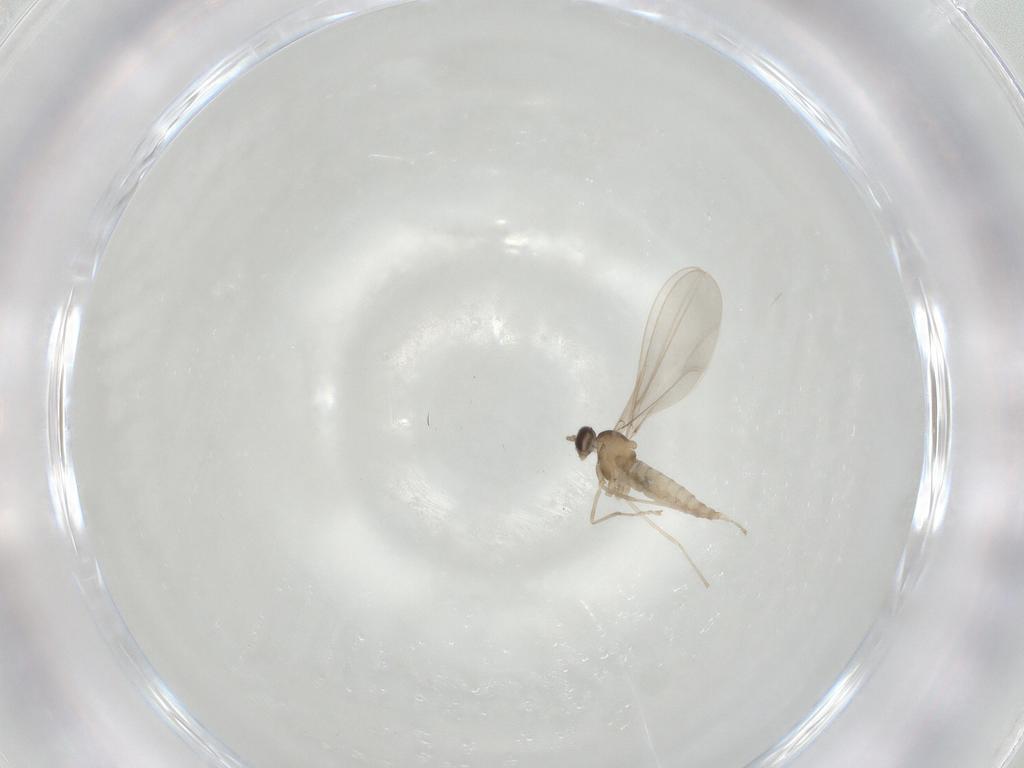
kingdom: Animalia
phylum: Arthropoda
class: Insecta
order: Diptera
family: Cecidomyiidae
